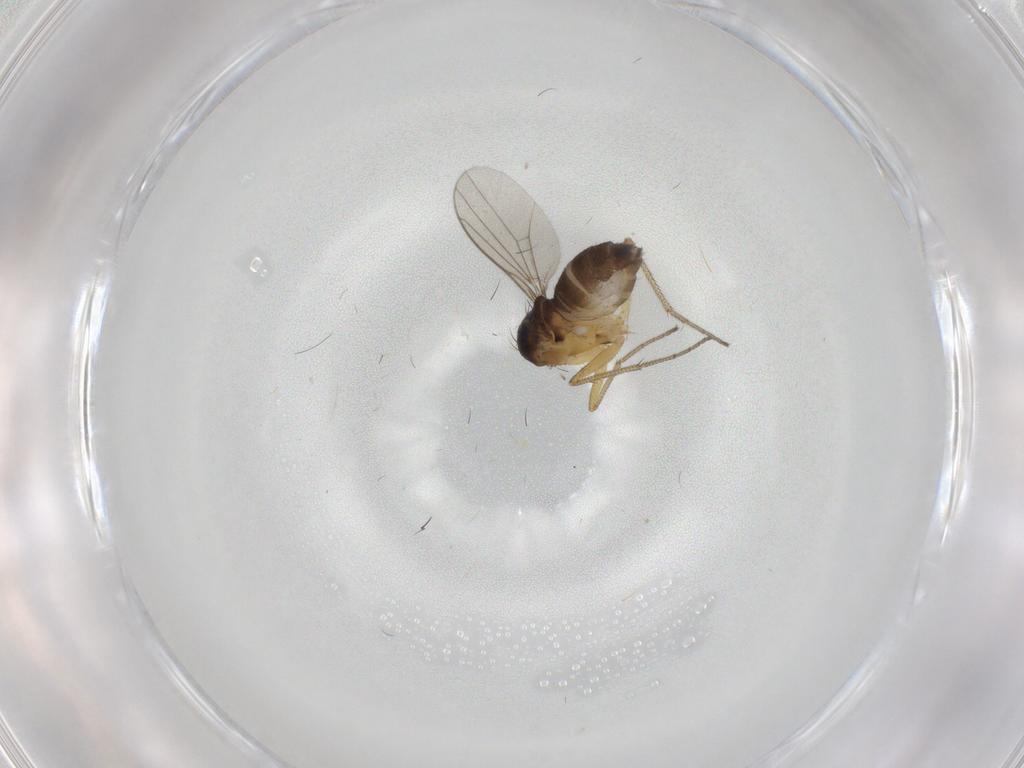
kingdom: Animalia
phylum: Arthropoda
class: Insecta
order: Diptera
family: Dolichopodidae
